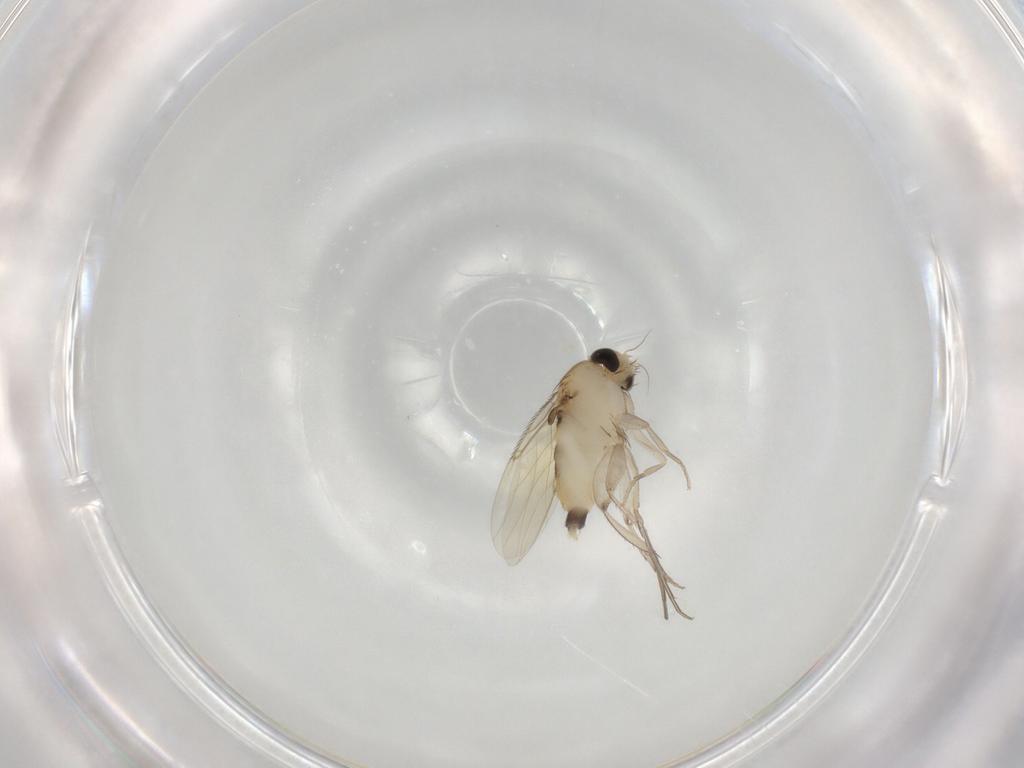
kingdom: Animalia
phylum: Arthropoda
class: Insecta
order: Diptera
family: Phoridae
